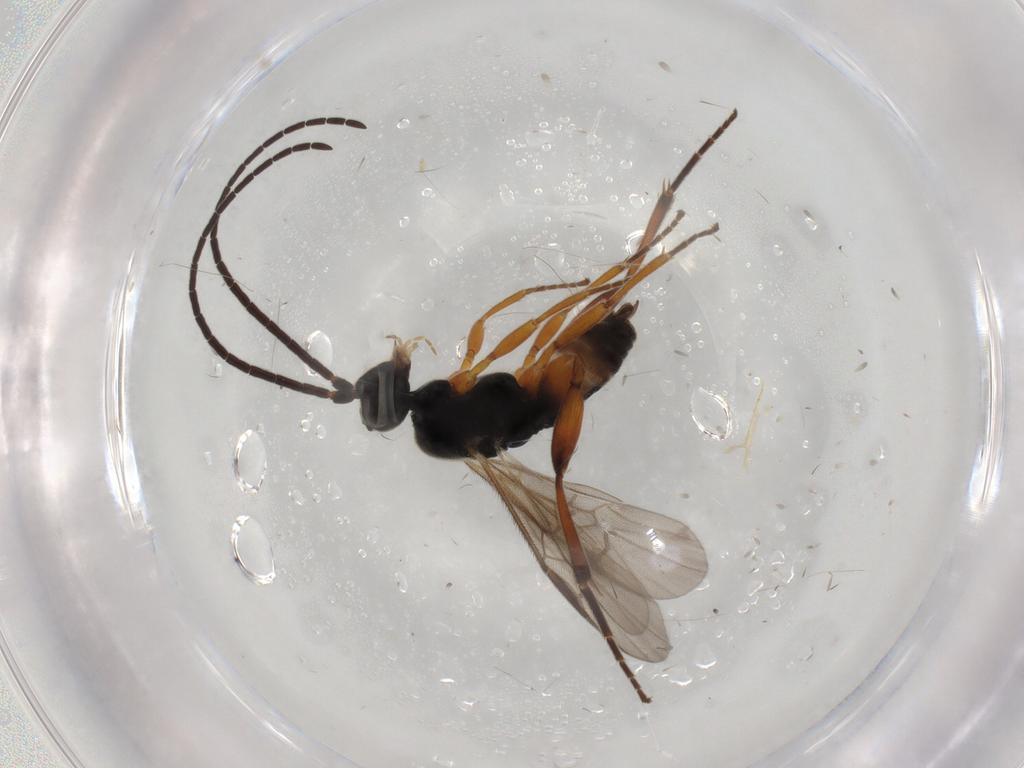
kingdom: Animalia
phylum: Arthropoda
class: Insecta
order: Hymenoptera
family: Braconidae
